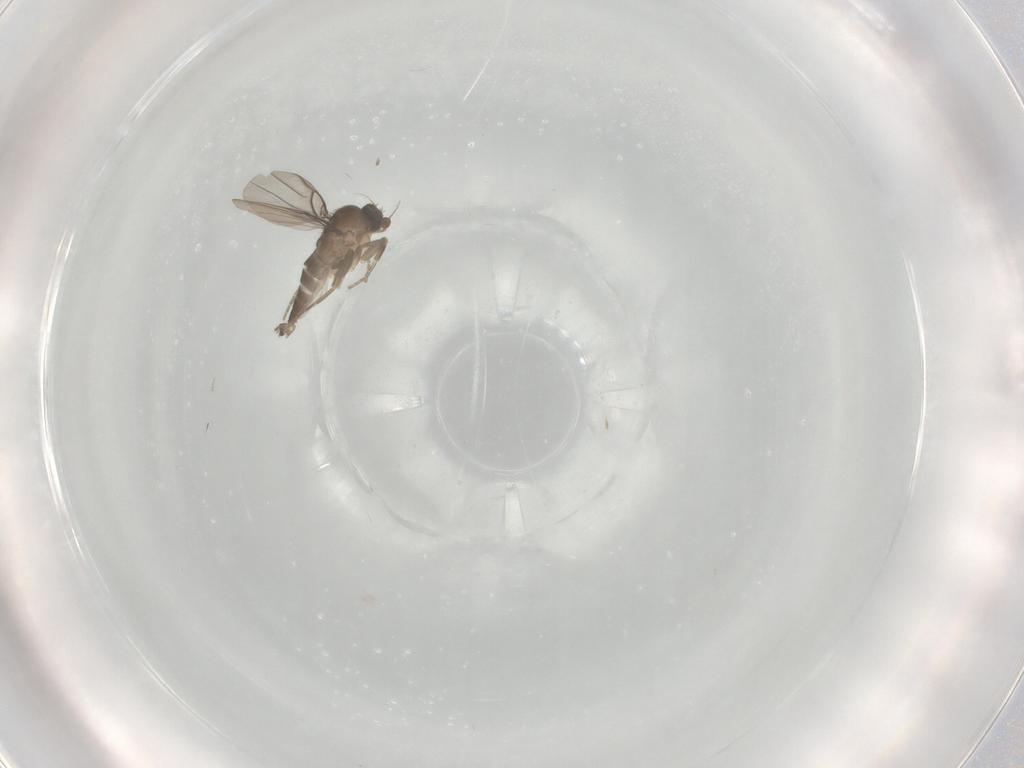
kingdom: Animalia
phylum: Arthropoda
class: Insecta
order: Diptera
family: Phoridae
